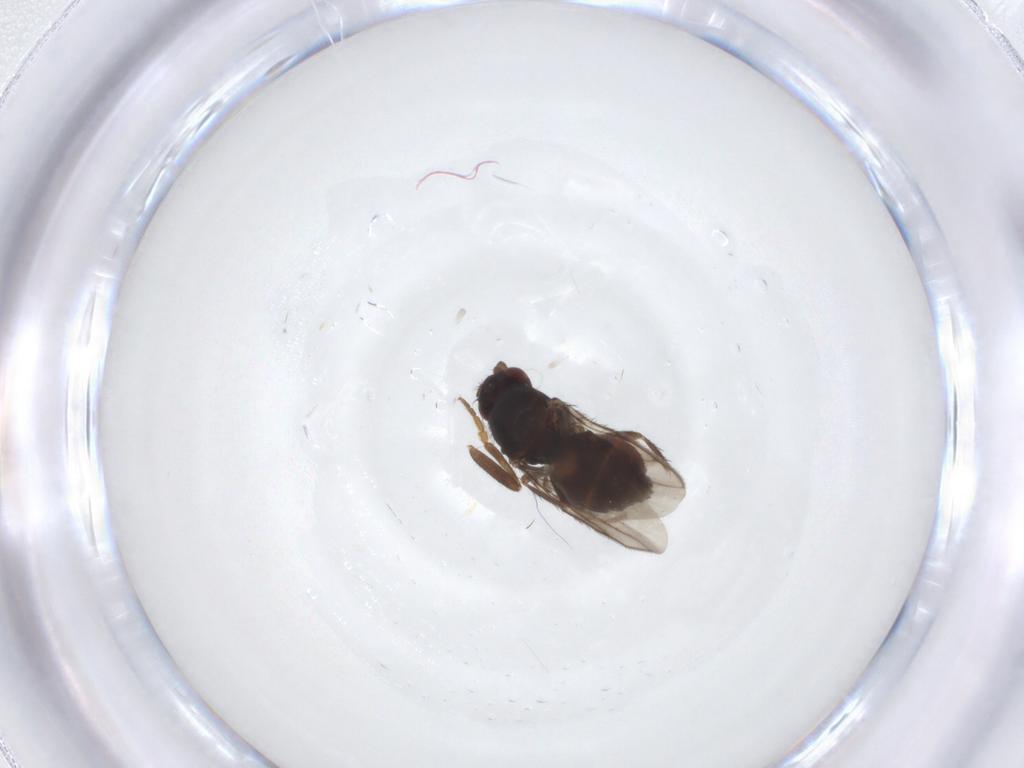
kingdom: Animalia
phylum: Arthropoda
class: Insecta
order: Diptera
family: Sphaeroceridae
